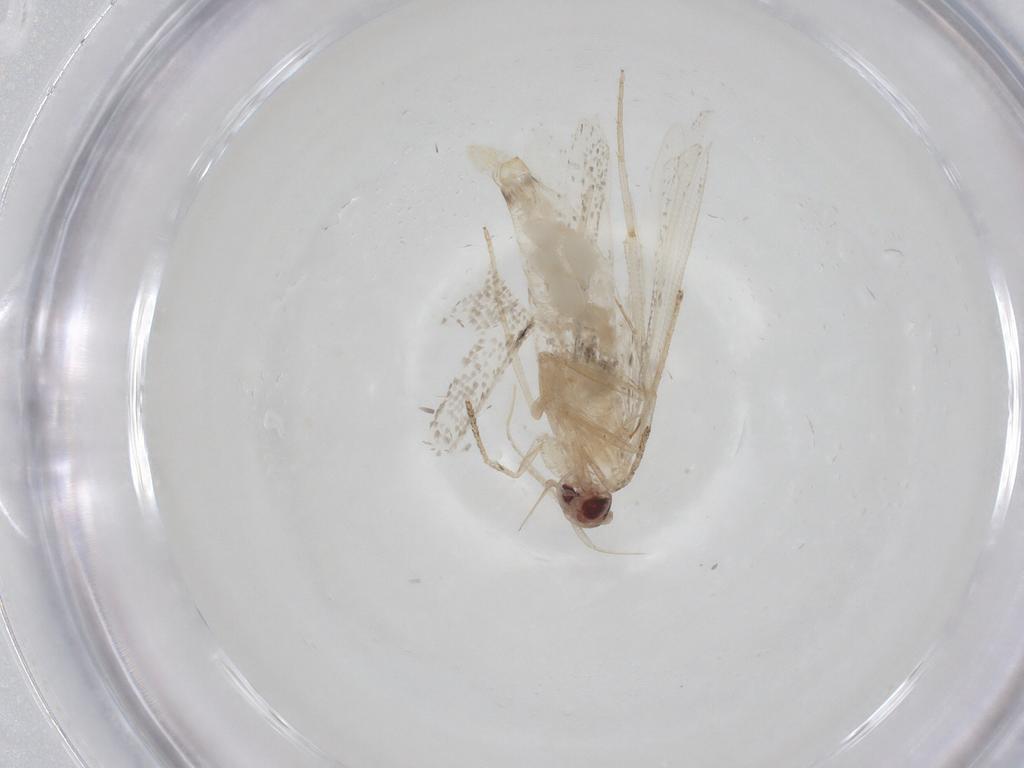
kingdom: Animalia
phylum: Arthropoda
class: Insecta
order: Lepidoptera
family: Gelechiidae
